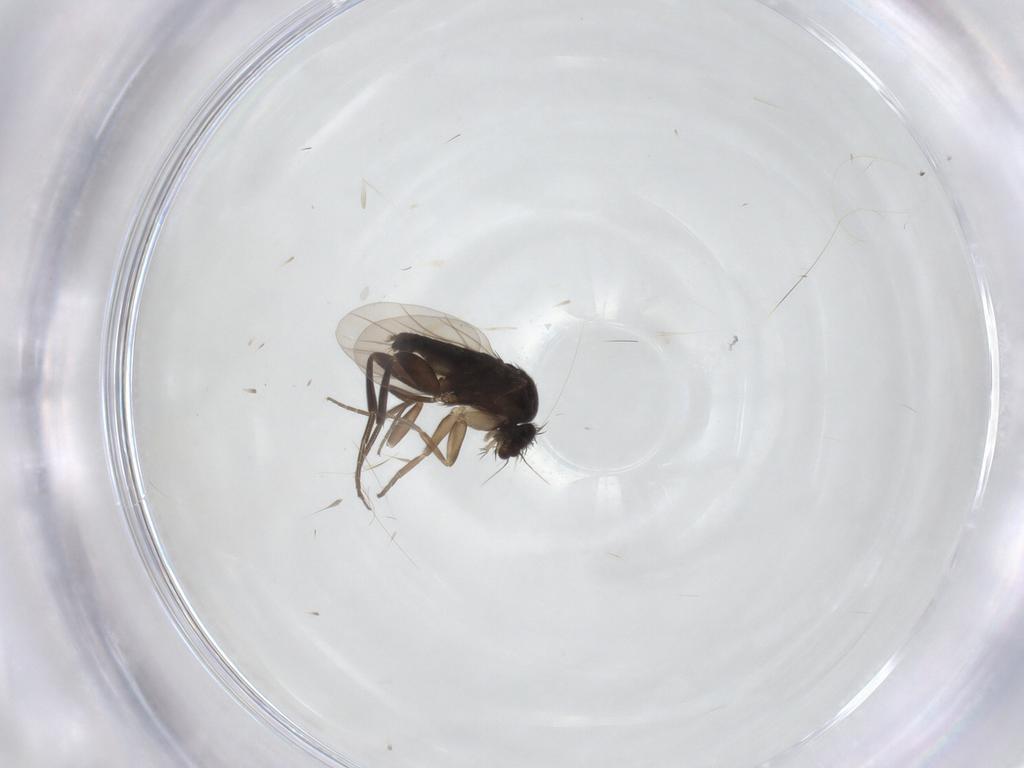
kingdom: Animalia
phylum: Arthropoda
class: Insecta
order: Diptera
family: Phoridae
